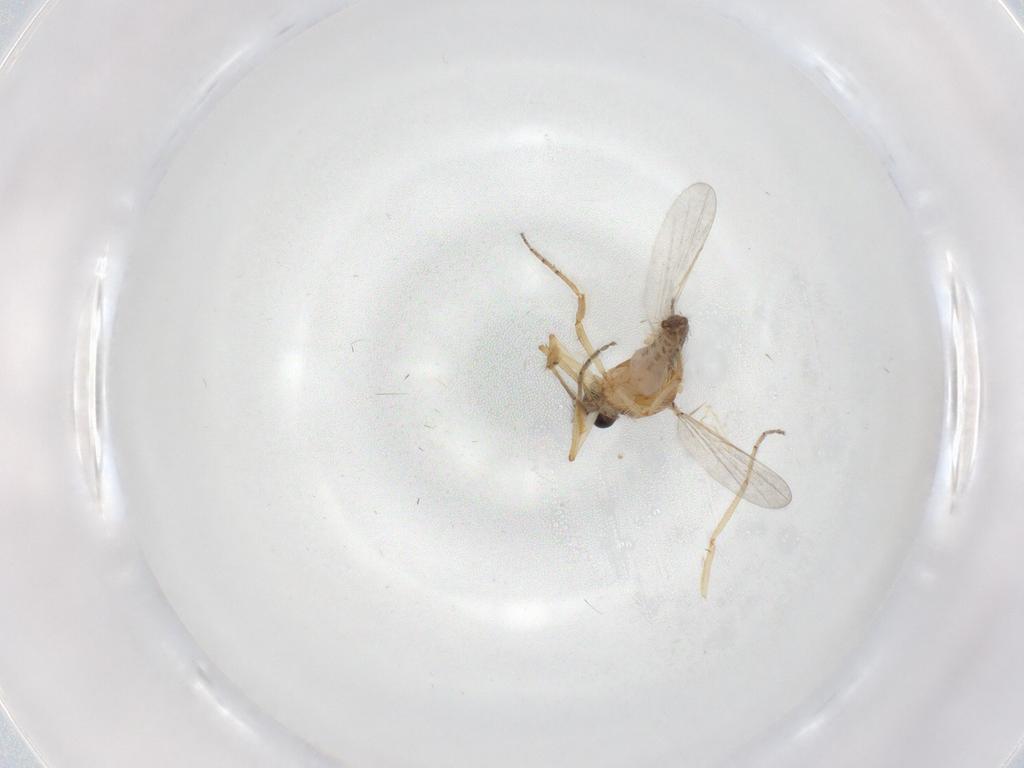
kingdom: Animalia
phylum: Arthropoda
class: Insecta
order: Diptera
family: Ceratopogonidae
